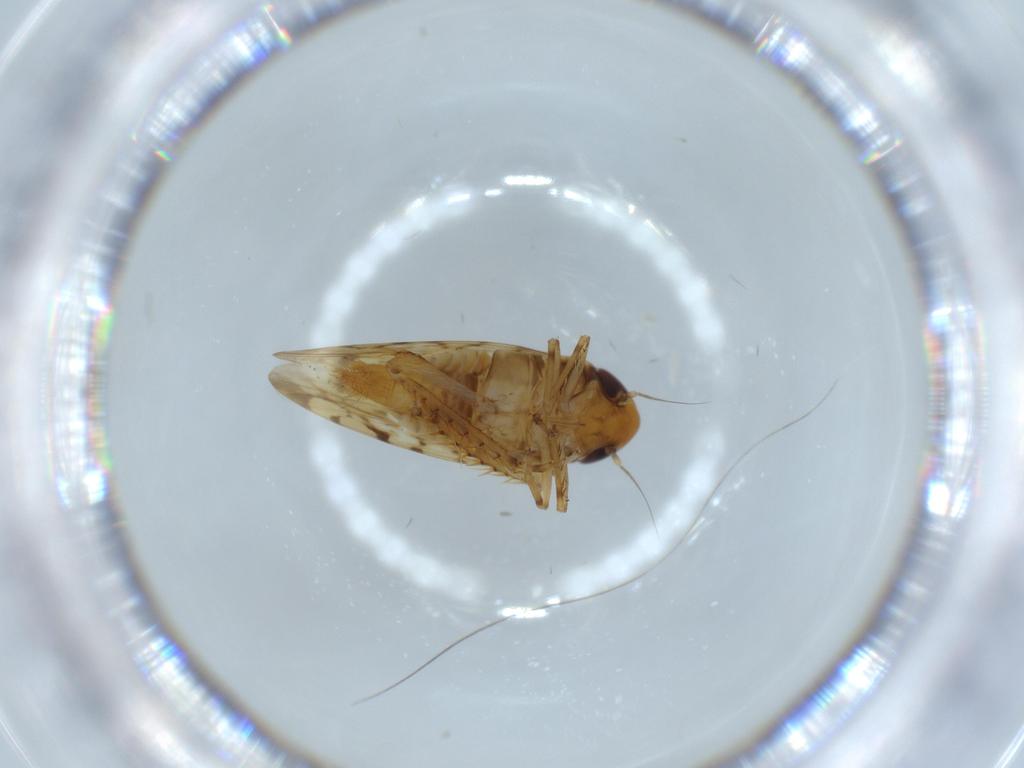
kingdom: Animalia
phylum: Arthropoda
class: Insecta
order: Hemiptera
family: Cicadellidae
